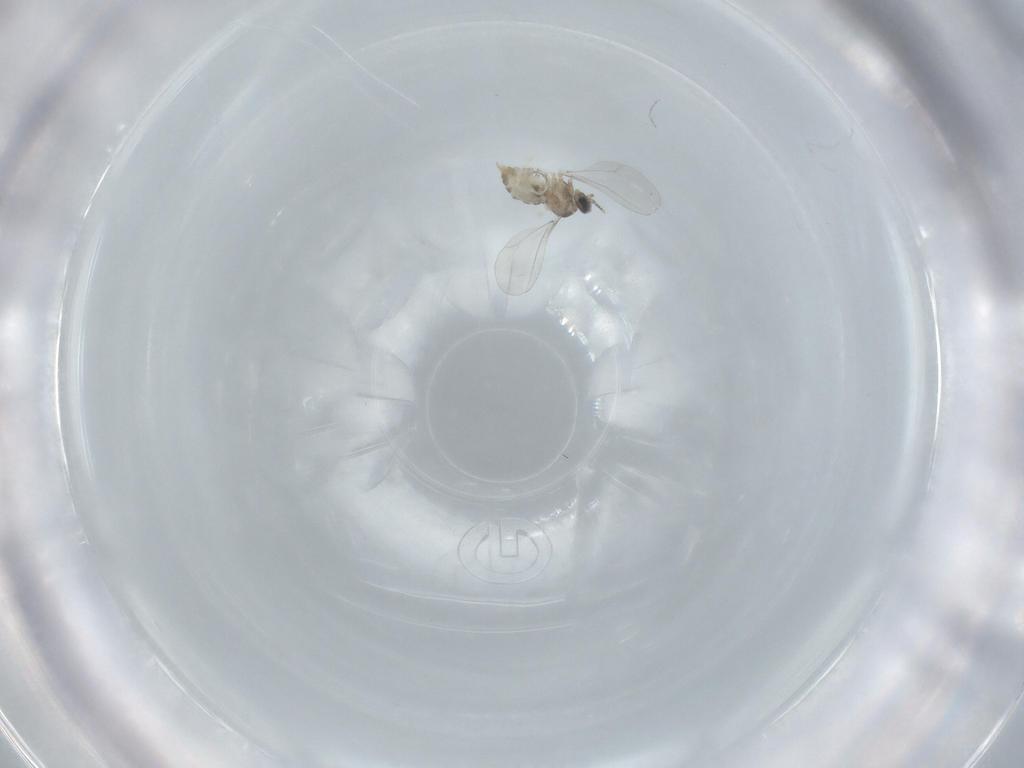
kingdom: Animalia
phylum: Arthropoda
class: Insecta
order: Diptera
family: Cecidomyiidae
